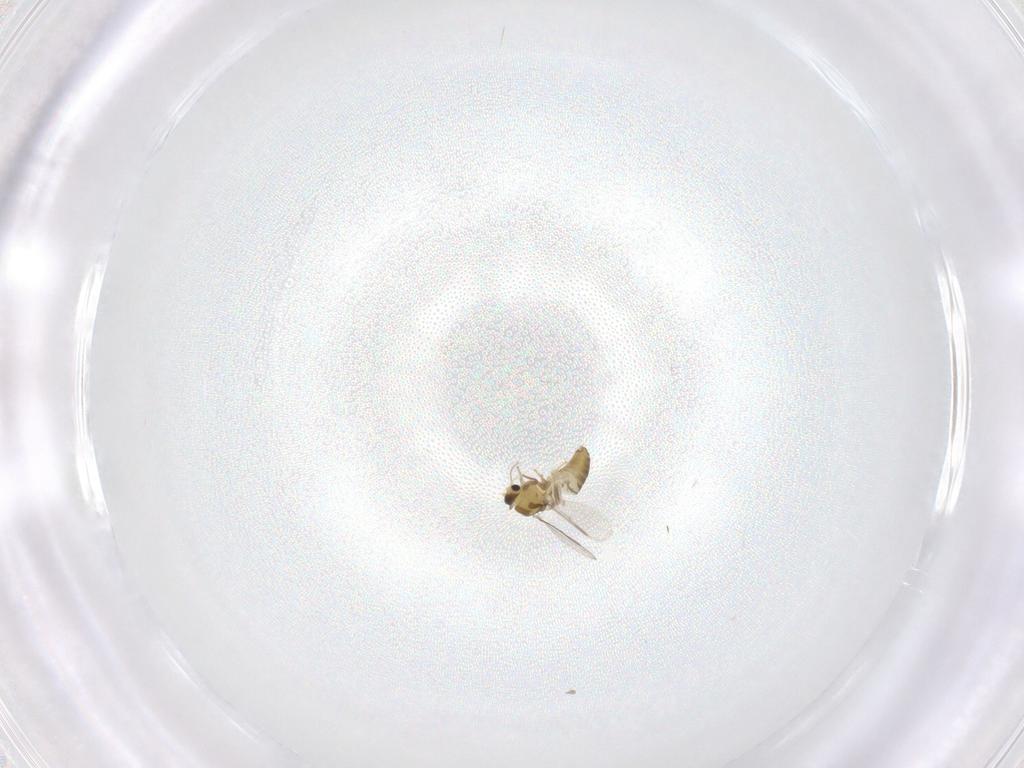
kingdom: Animalia
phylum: Arthropoda
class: Insecta
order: Diptera
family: Chironomidae
